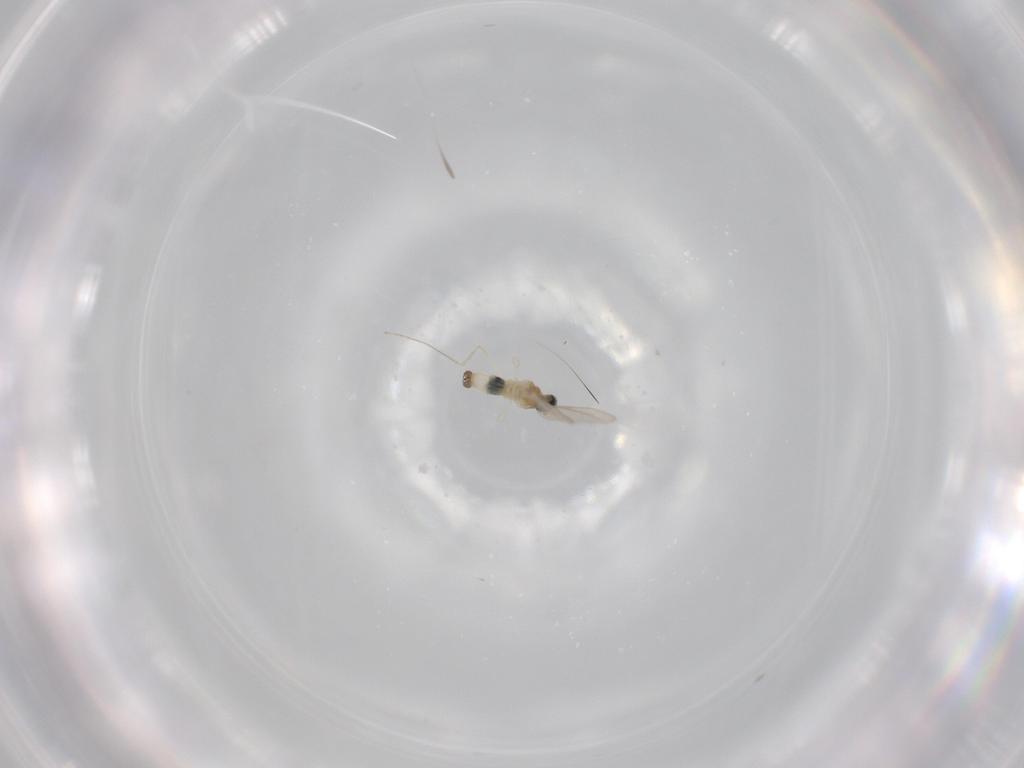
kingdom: Animalia
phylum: Arthropoda
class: Insecta
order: Diptera
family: Cecidomyiidae
